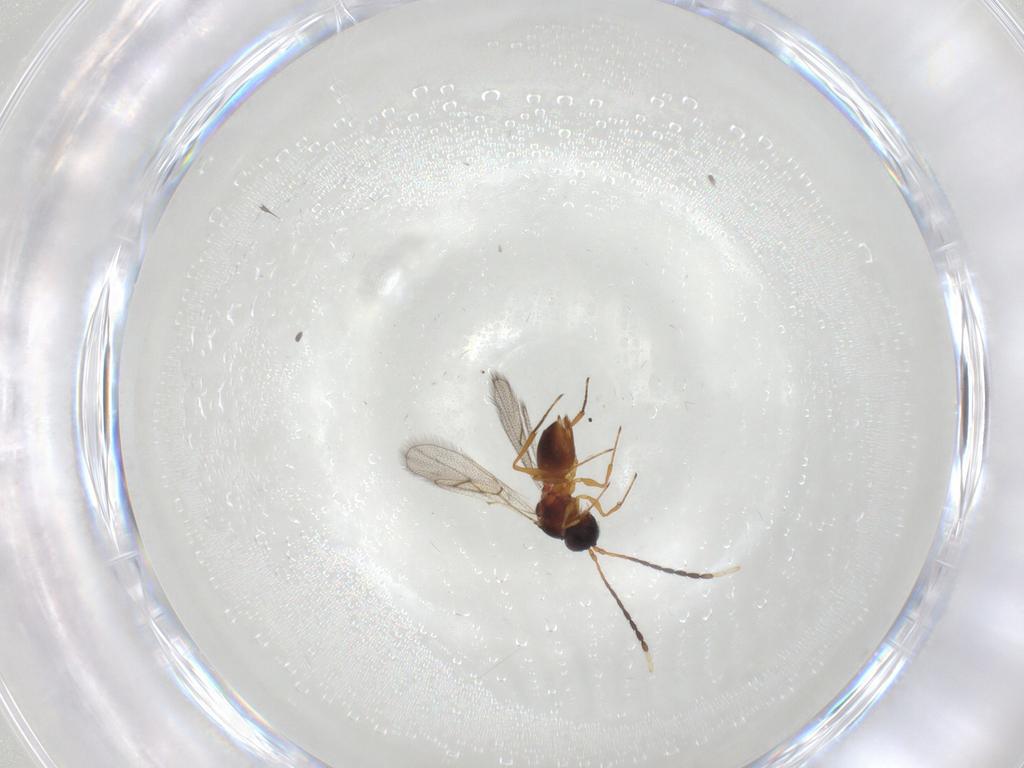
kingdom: Animalia
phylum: Arthropoda
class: Insecta
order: Hymenoptera
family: Figitidae
